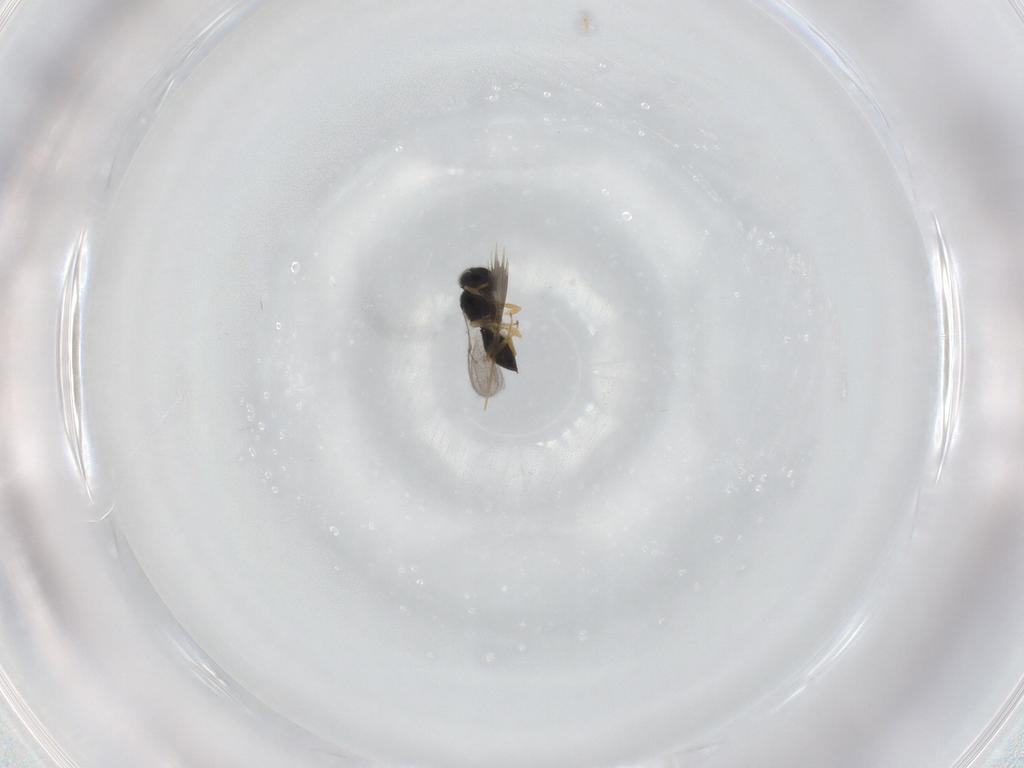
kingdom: Animalia
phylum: Arthropoda
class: Insecta
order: Hymenoptera
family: Scelionidae
